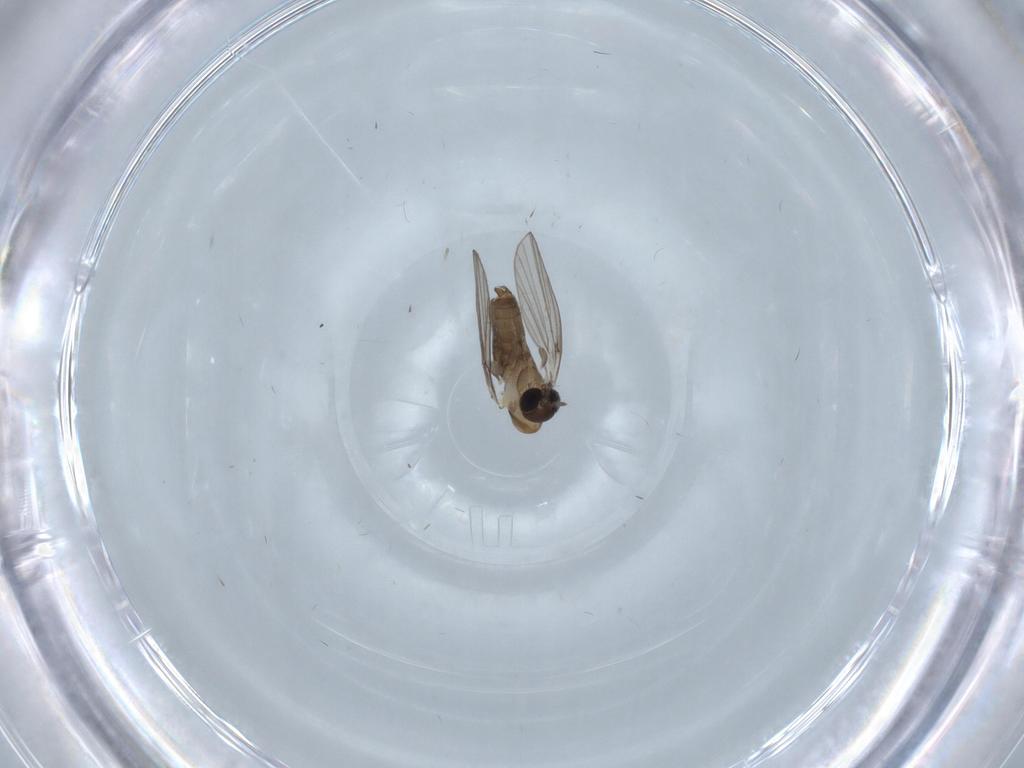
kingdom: Animalia
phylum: Arthropoda
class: Insecta
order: Diptera
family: Psychodidae
